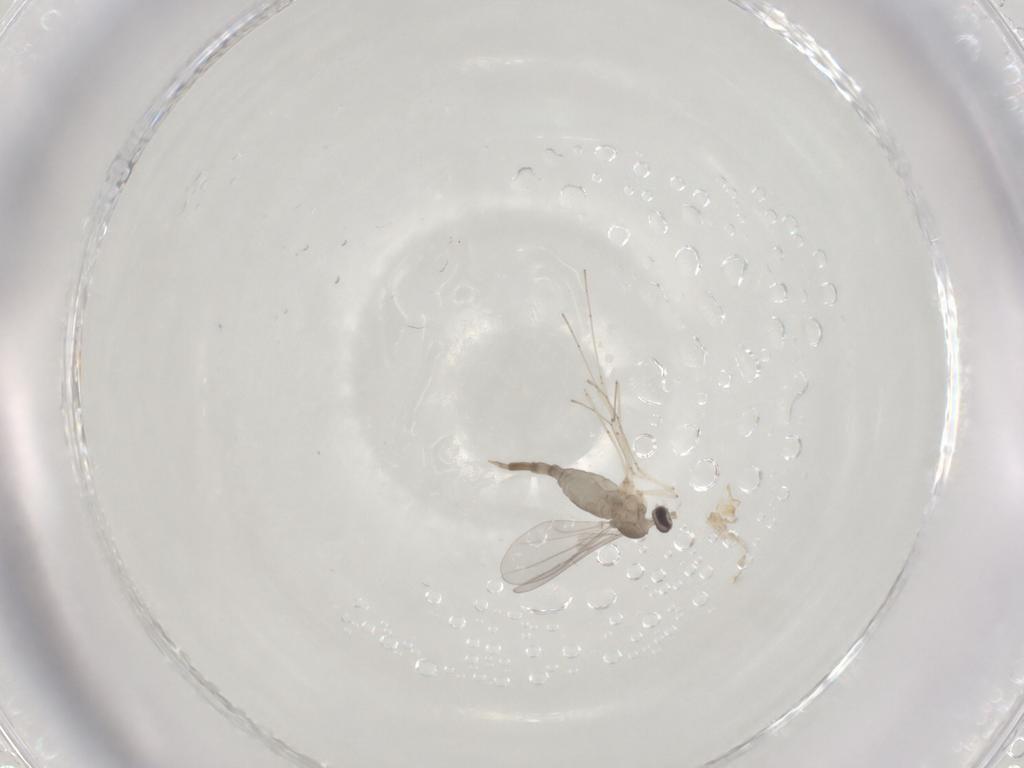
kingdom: Animalia
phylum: Arthropoda
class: Insecta
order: Diptera
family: Cecidomyiidae
